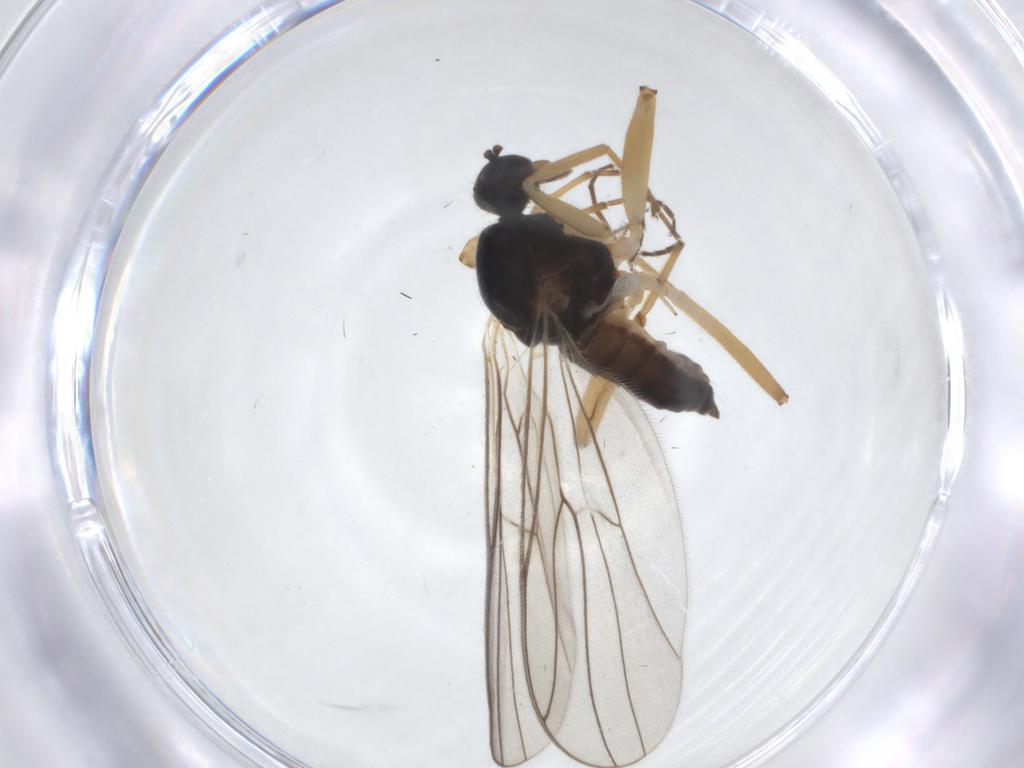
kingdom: Animalia
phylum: Arthropoda
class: Insecta
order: Diptera
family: Hybotidae
